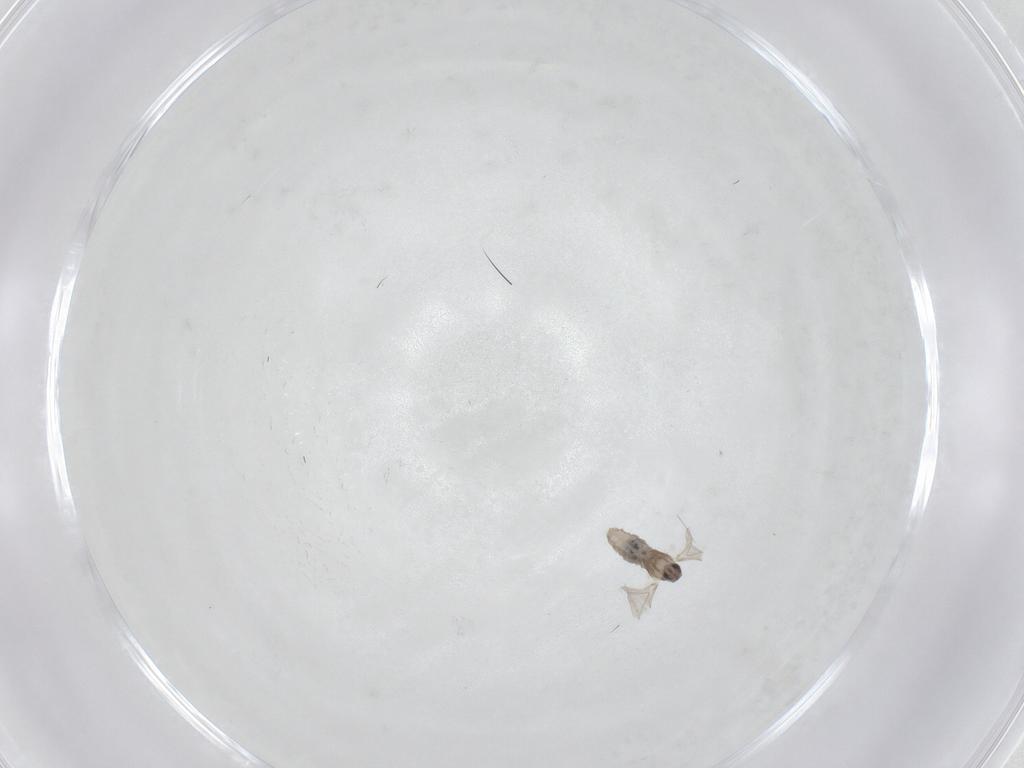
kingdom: Animalia
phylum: Arthropoda
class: Insecta
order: Diptera
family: Cecidomyiidae
